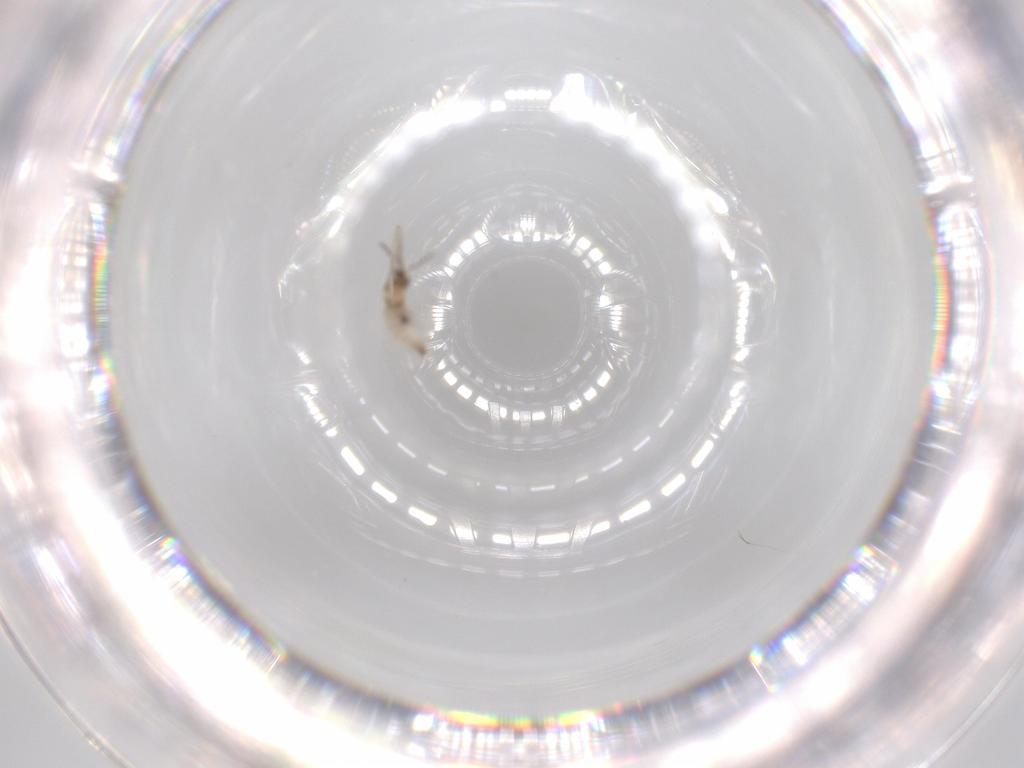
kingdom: Animalia
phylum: Arthropoda
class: Insecta
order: Diptera
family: Cecidomyiidae
